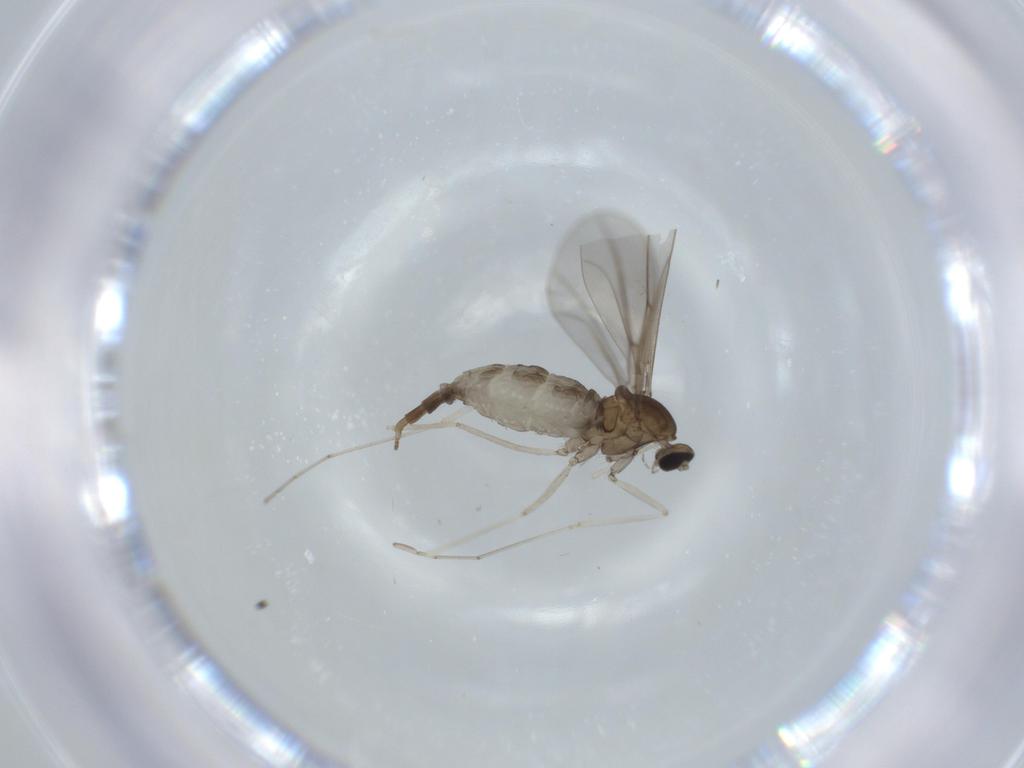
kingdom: Animalia
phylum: Arthropoda
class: Insecta
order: Diptera
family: Cecidomyiidae
